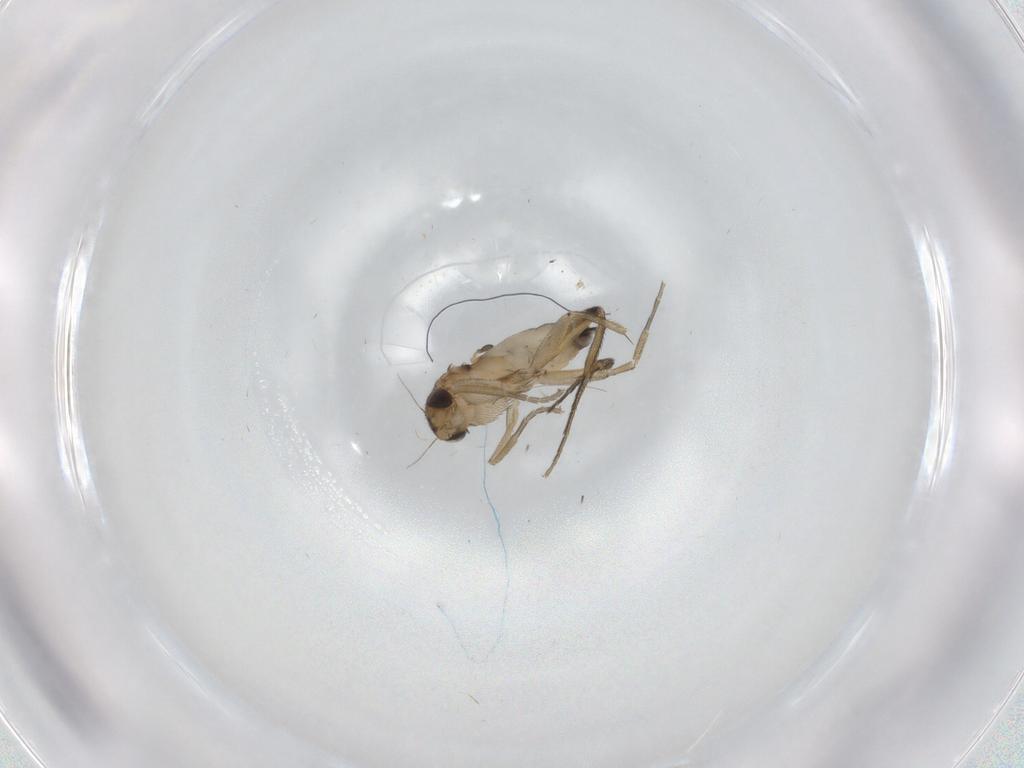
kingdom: Animalia
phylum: Arthropoda
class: Insecta
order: Diptera
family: Phoridae
